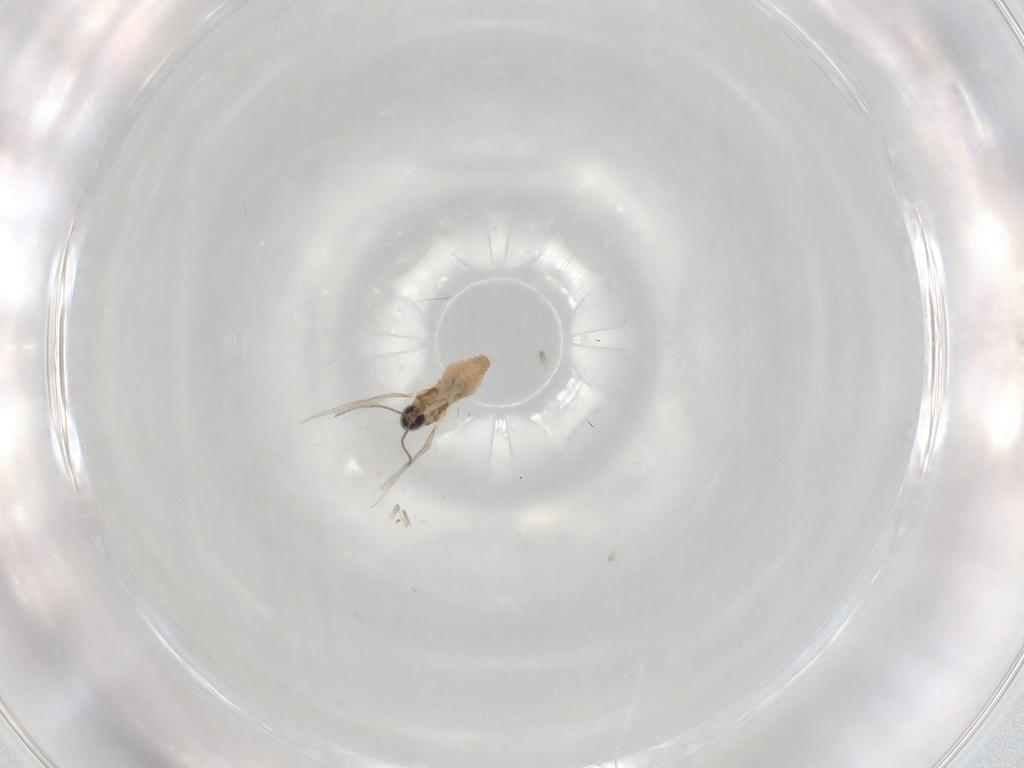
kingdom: Animalia
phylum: Arthropoda
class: Insecta
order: Diptera
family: Cecidomyiidae
